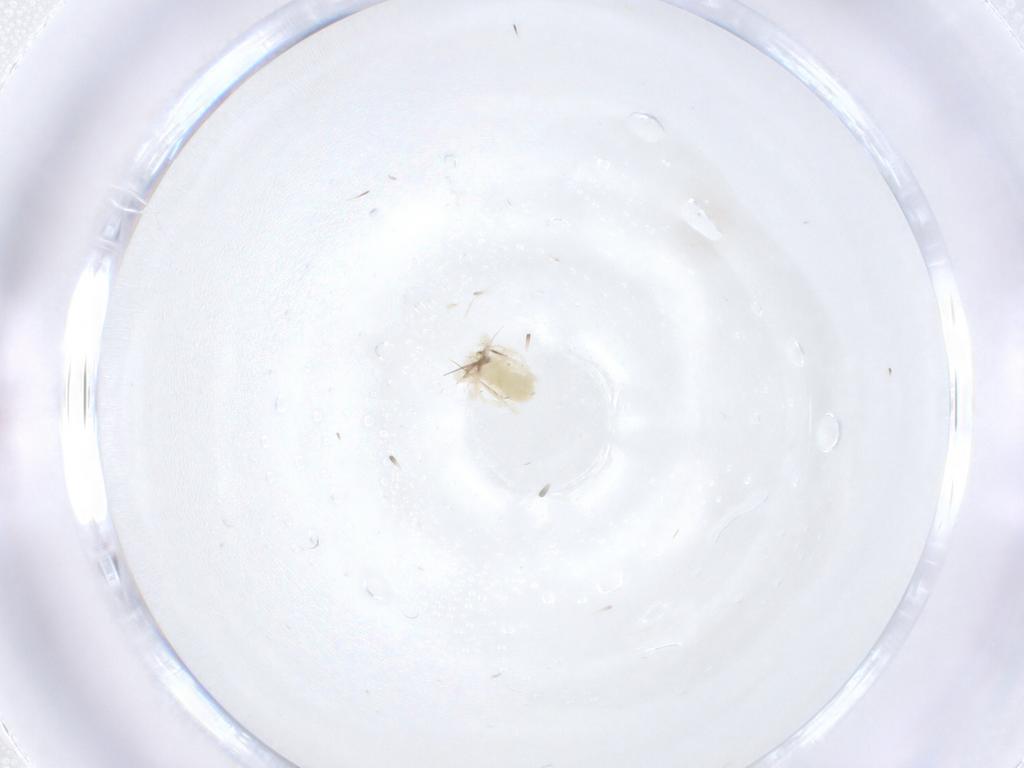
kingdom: Animalia
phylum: Arthropoda
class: Arachnida
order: Trombidiformes
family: Anystidae
